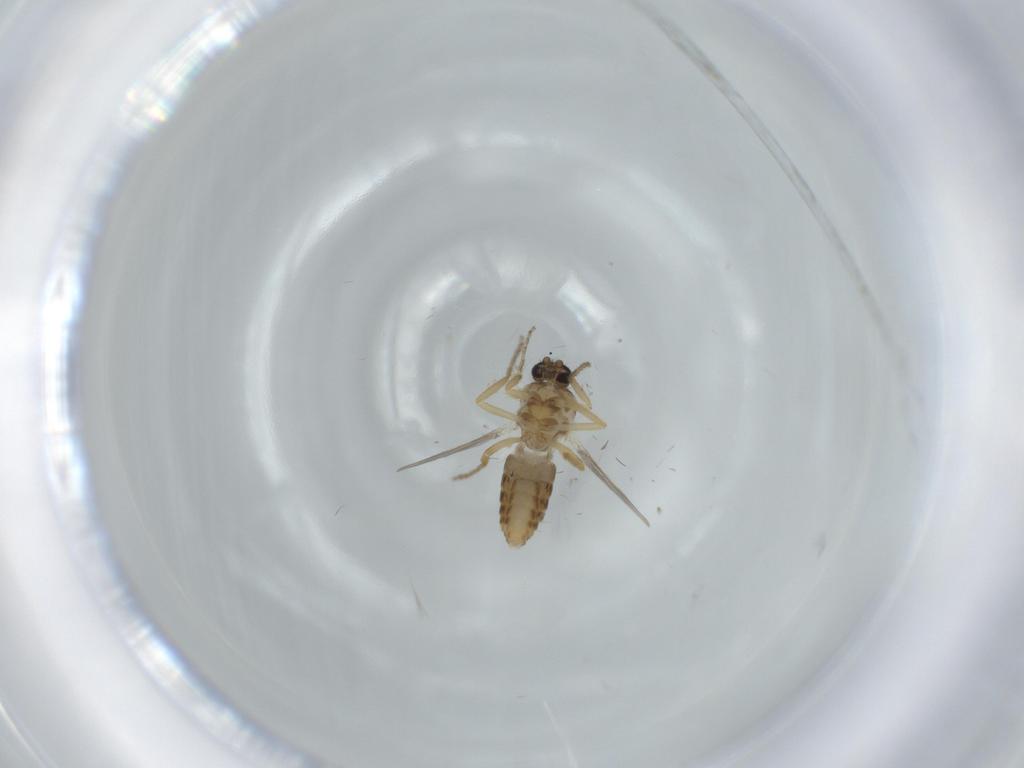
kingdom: Animalia
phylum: Arthropoda
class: Insecta
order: Diptera
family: Ceratopogonidae
